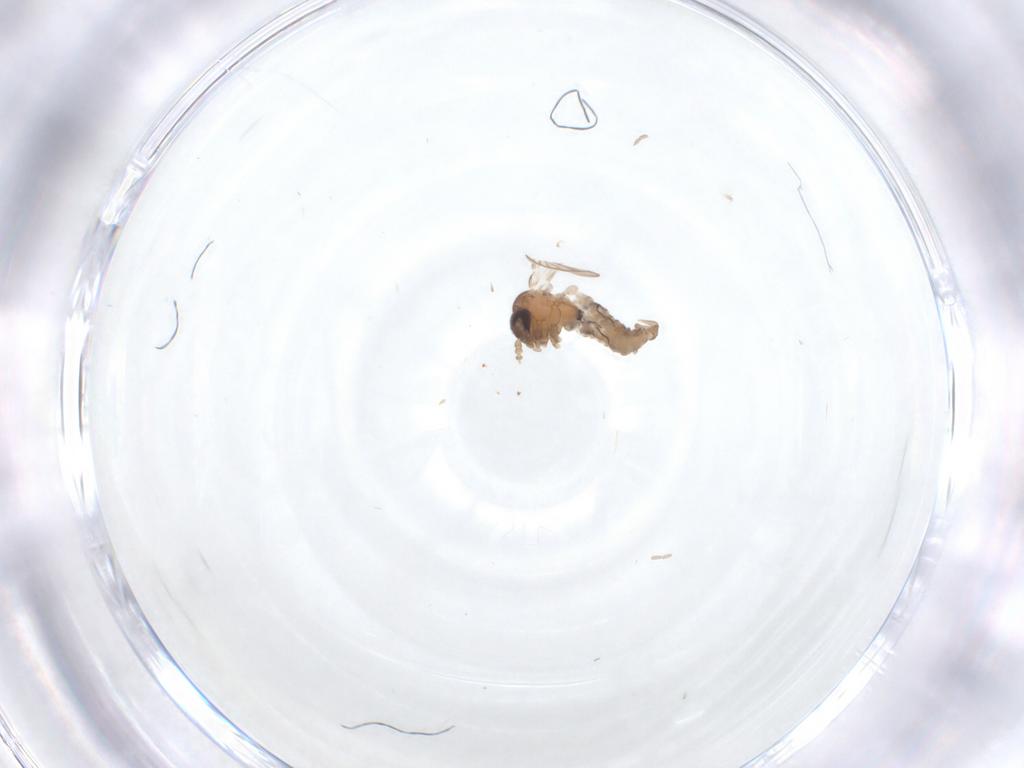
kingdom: Animalia
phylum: Arthropoda
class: Insecta
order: Diptera
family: Psychodidae
